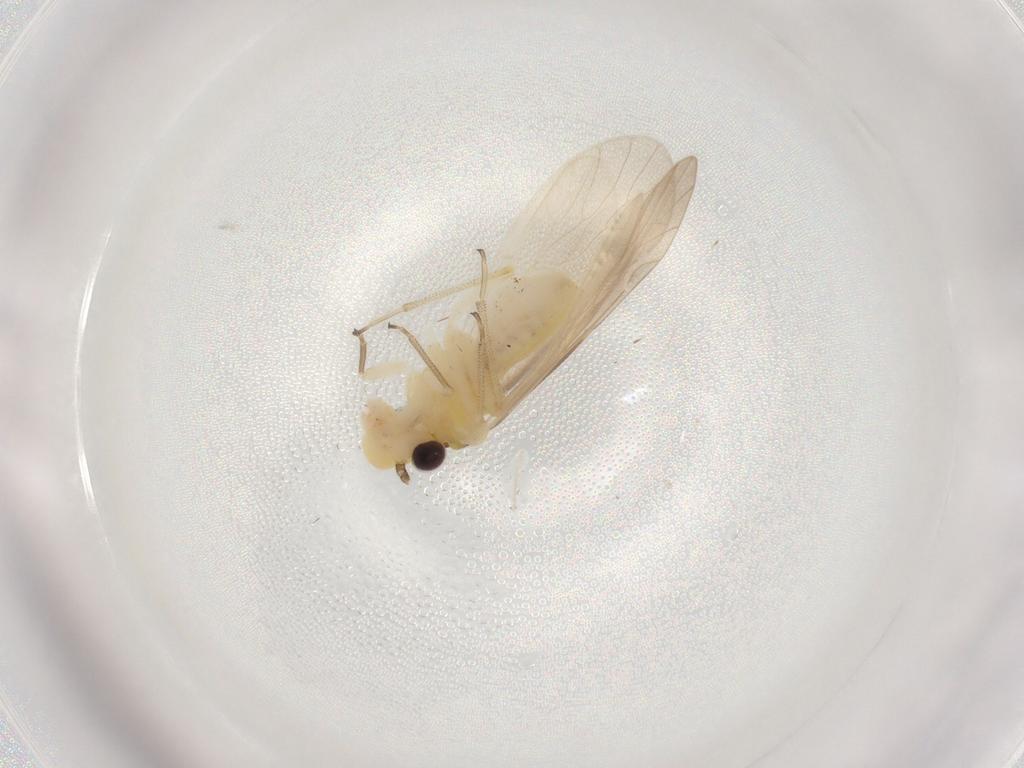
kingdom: Animalia
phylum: Arthropoda
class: Insecta
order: Psocodea
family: Caeciliusidae
